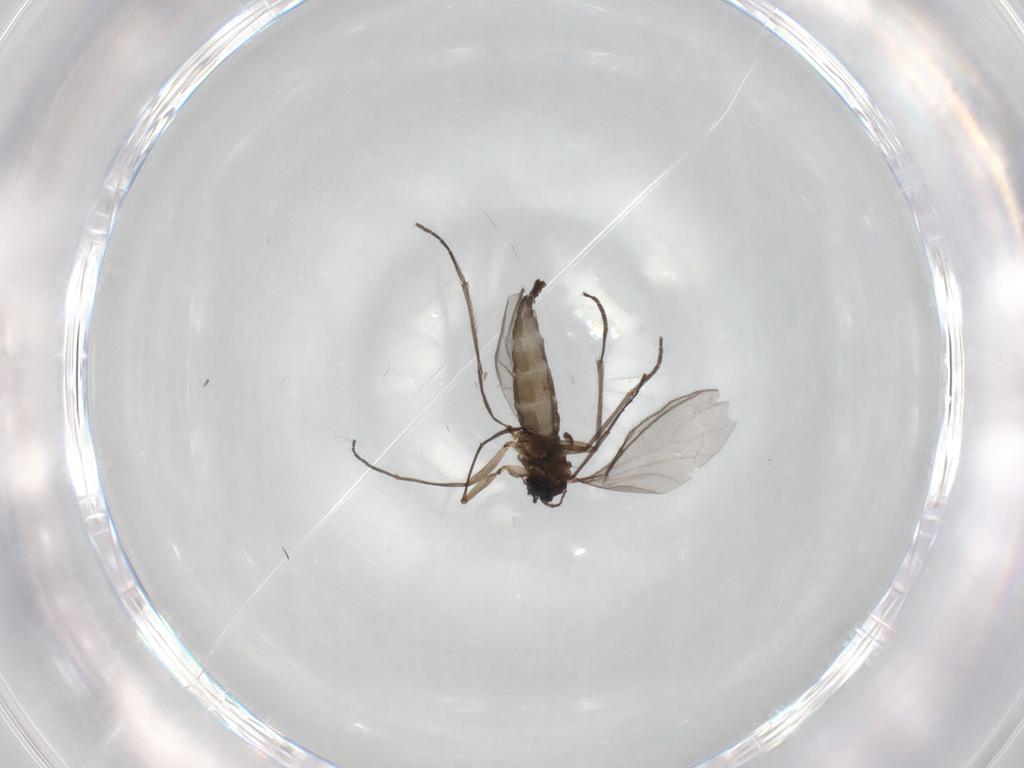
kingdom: Animalia
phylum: Arthropoda
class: Insecta
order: Diptera
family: Sciaridae
